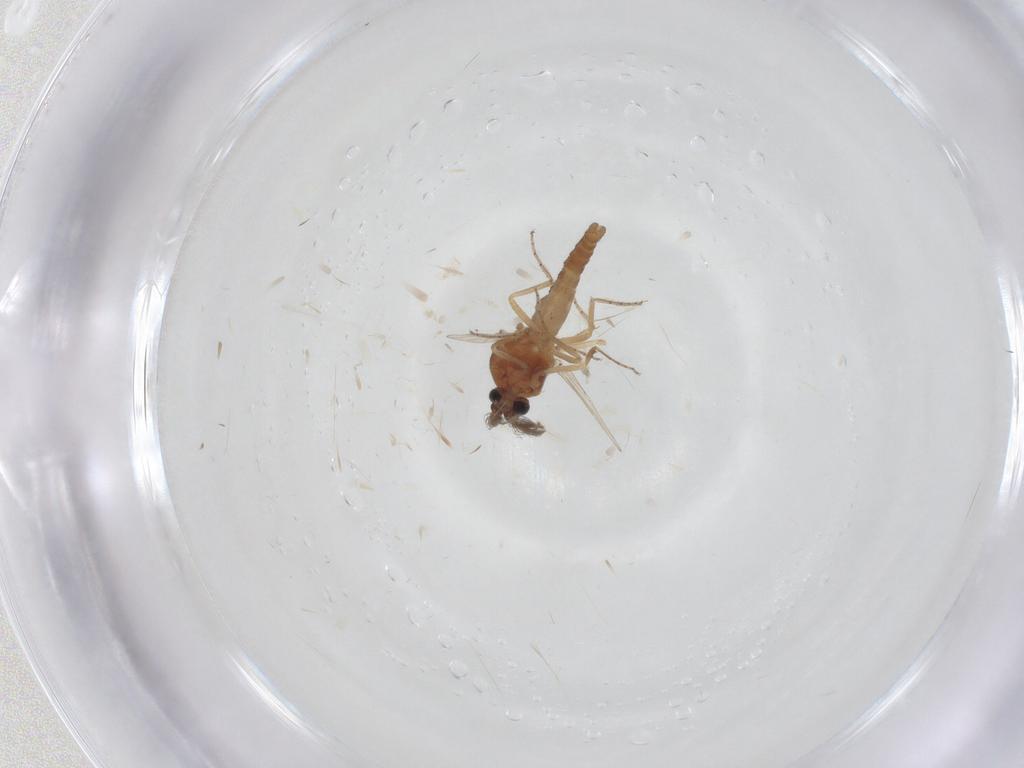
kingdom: Animalia
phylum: Arthropoda
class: Insecta
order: Diptera
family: Ceratopogonidae
